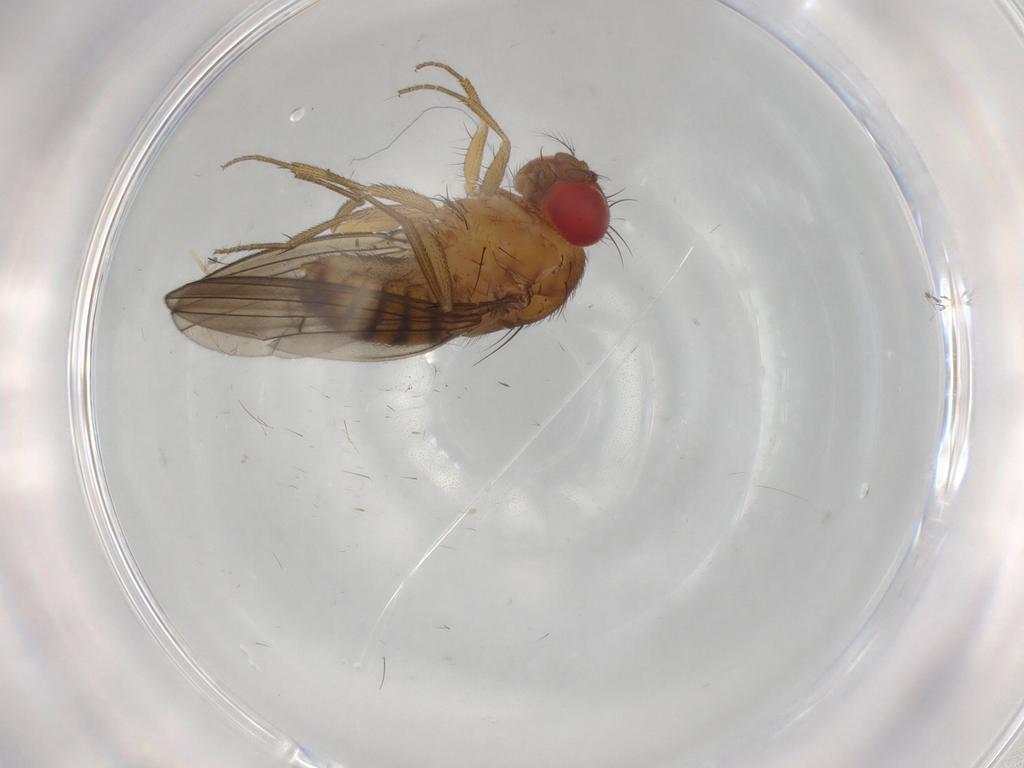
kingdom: Animalia
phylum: Arthropoda
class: Insecta
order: Diptera
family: Drosophilidae
